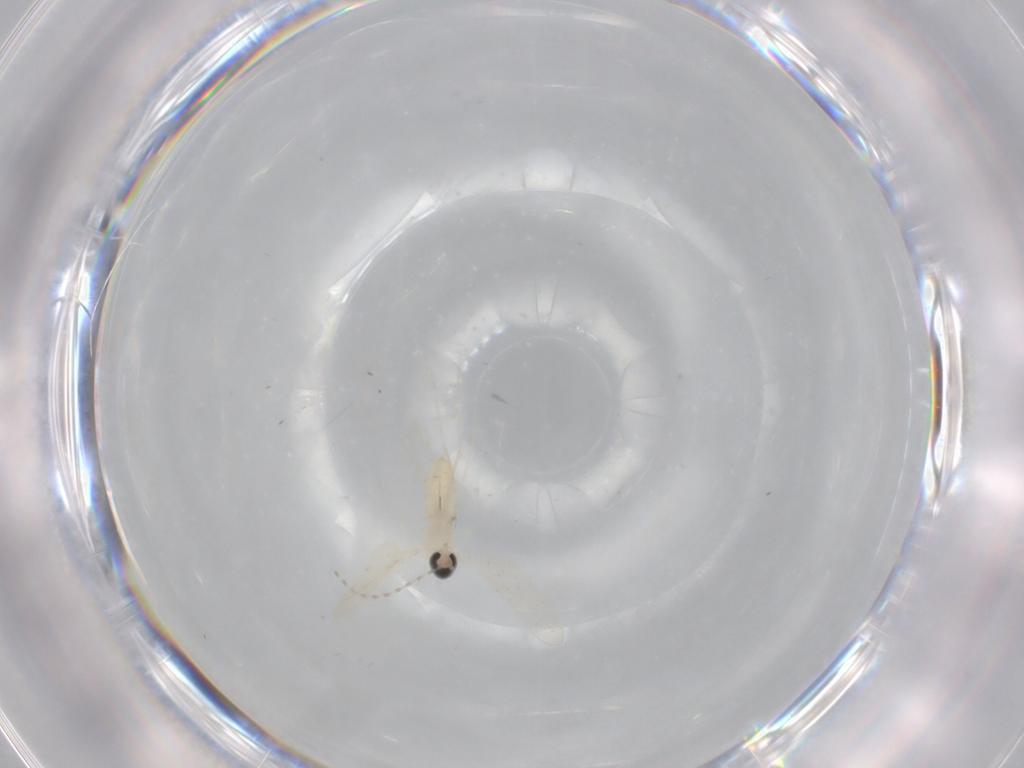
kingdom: Animalia
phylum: Arthropoda
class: Insecta
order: Diptera
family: Cecidomyiidae
